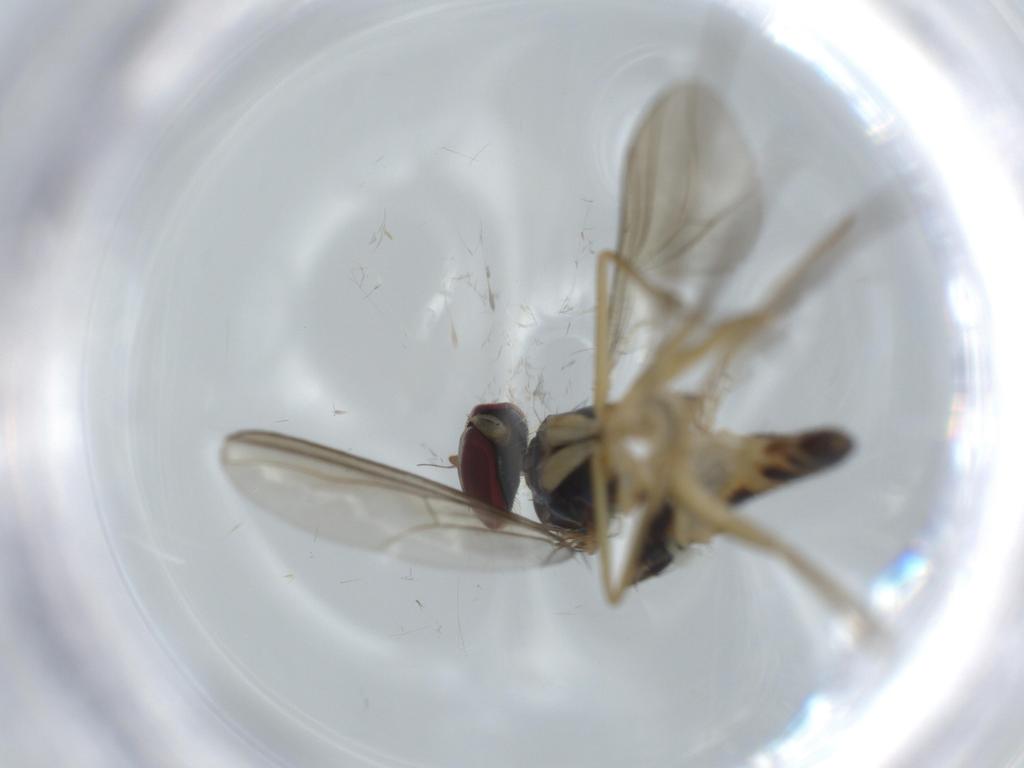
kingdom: Animalia
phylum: Arthropoda
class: Insecta
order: Diptera
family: Dolichopodidae
